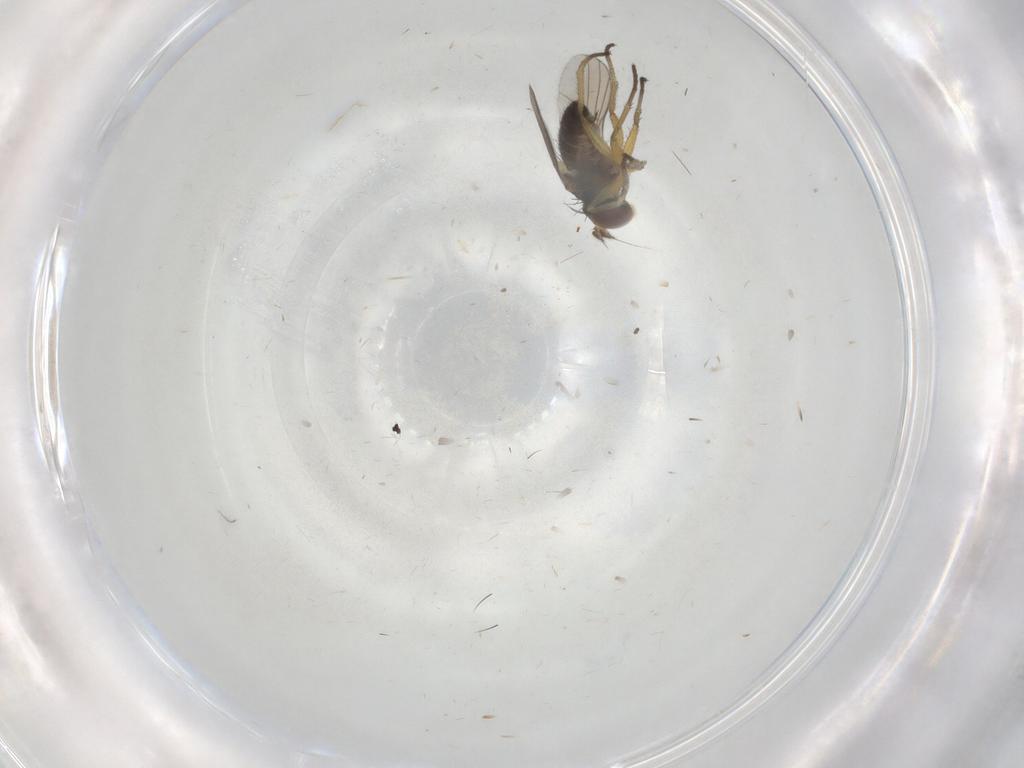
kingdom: Animalia
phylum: Arthropoda
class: Insecta
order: Diptera
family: Dolichopodidae
